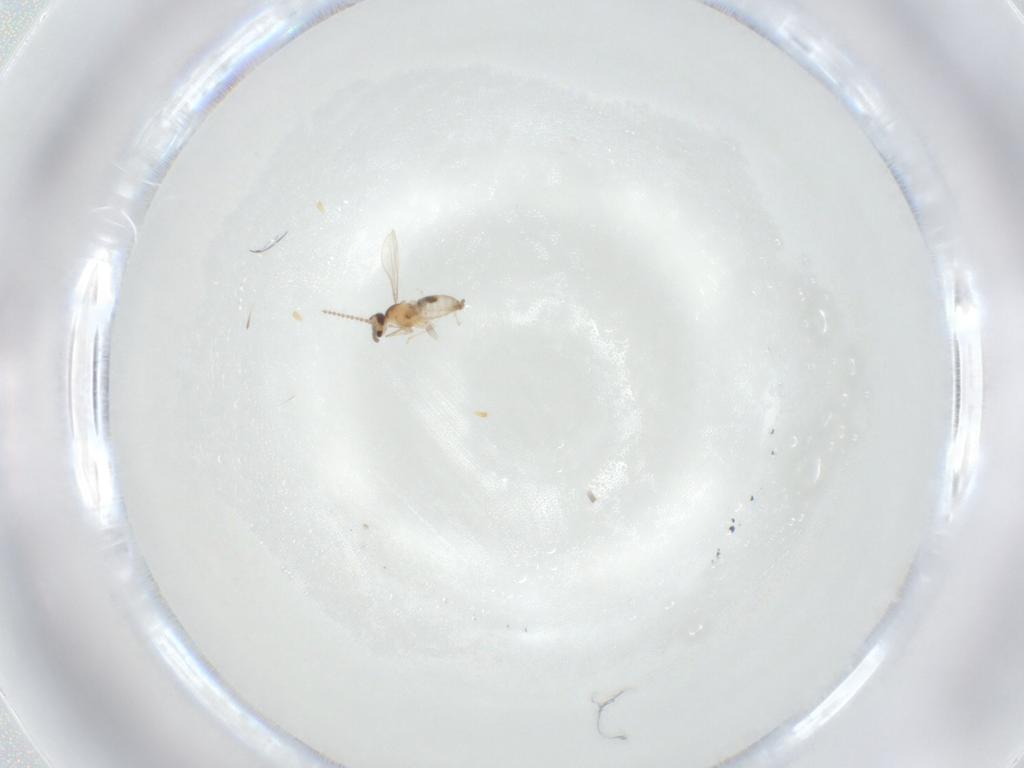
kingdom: Animalia
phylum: Arthropoda
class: Insecta
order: Diptera
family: Cecidomyiidae
